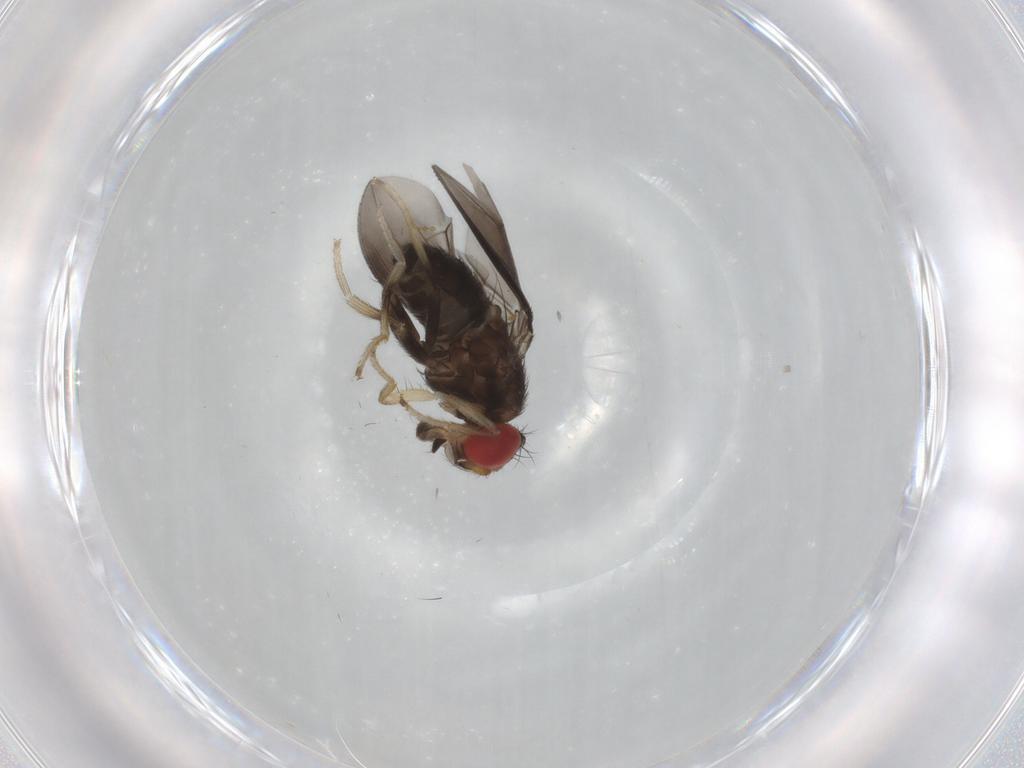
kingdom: Animalia
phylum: Arthropoda
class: Insecta
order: Diptera
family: Drosophilidae
